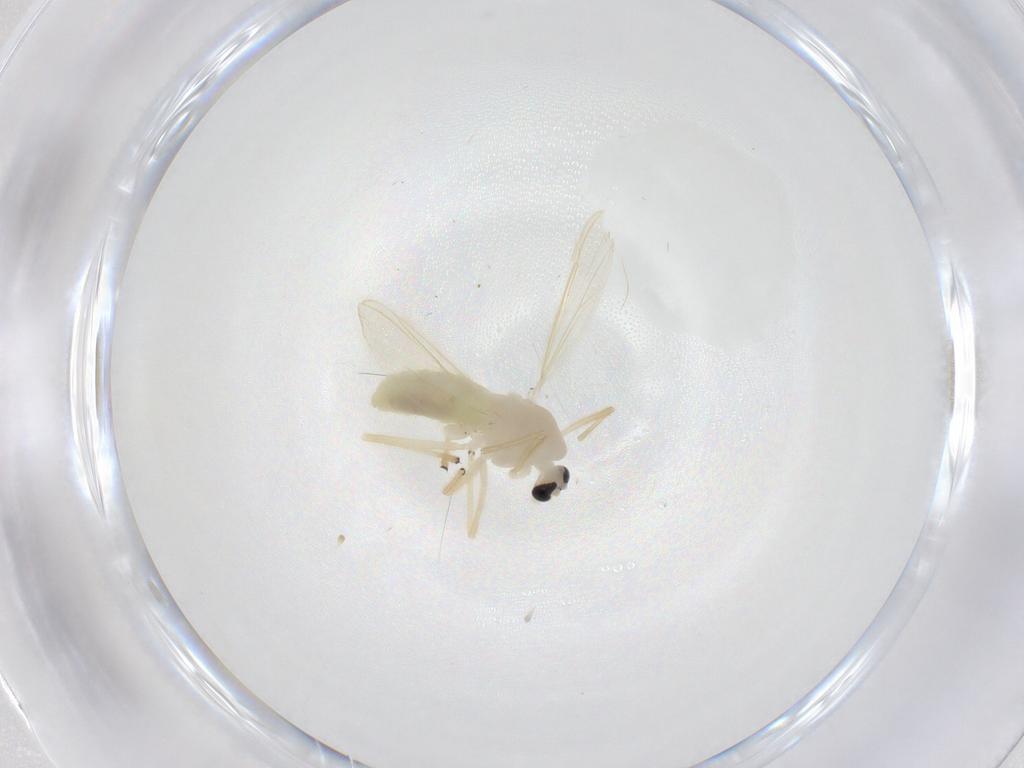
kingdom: Animalia
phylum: Arthropoda
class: Insecta
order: Diptera
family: Chironomidae
